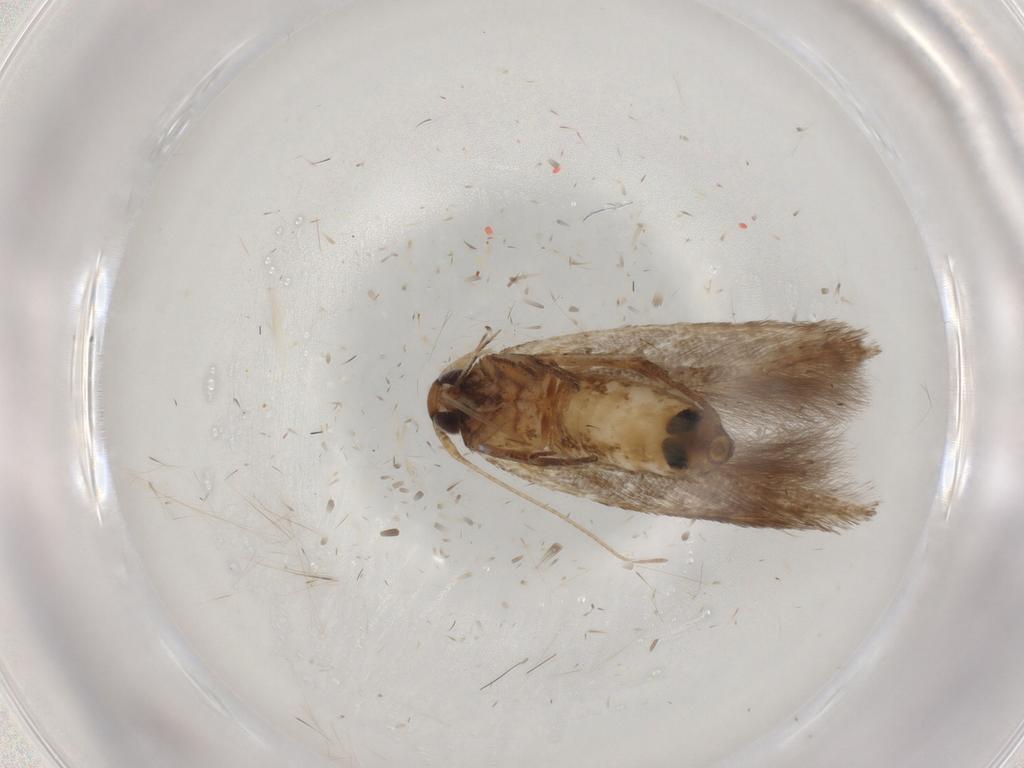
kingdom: Animalia
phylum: Arthropoda
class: Insecta
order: Lepidoptera
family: Cosmopterigidae
